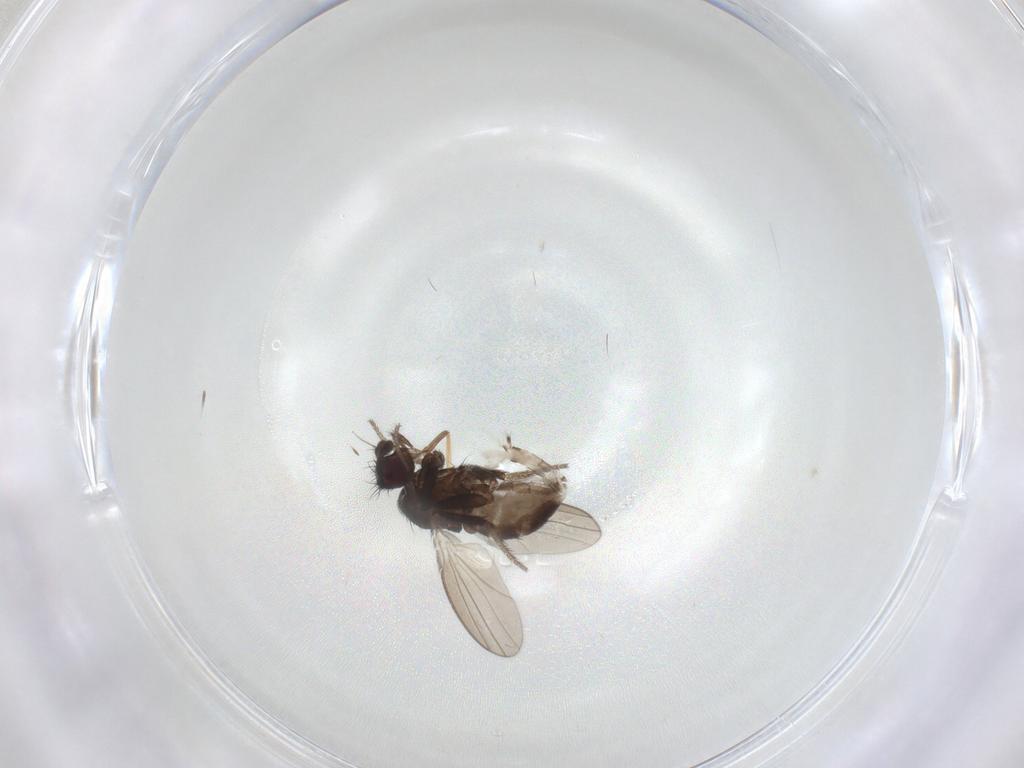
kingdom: Animalia
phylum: Arthropoda
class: Insecta
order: Diptera
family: Milichiidae
